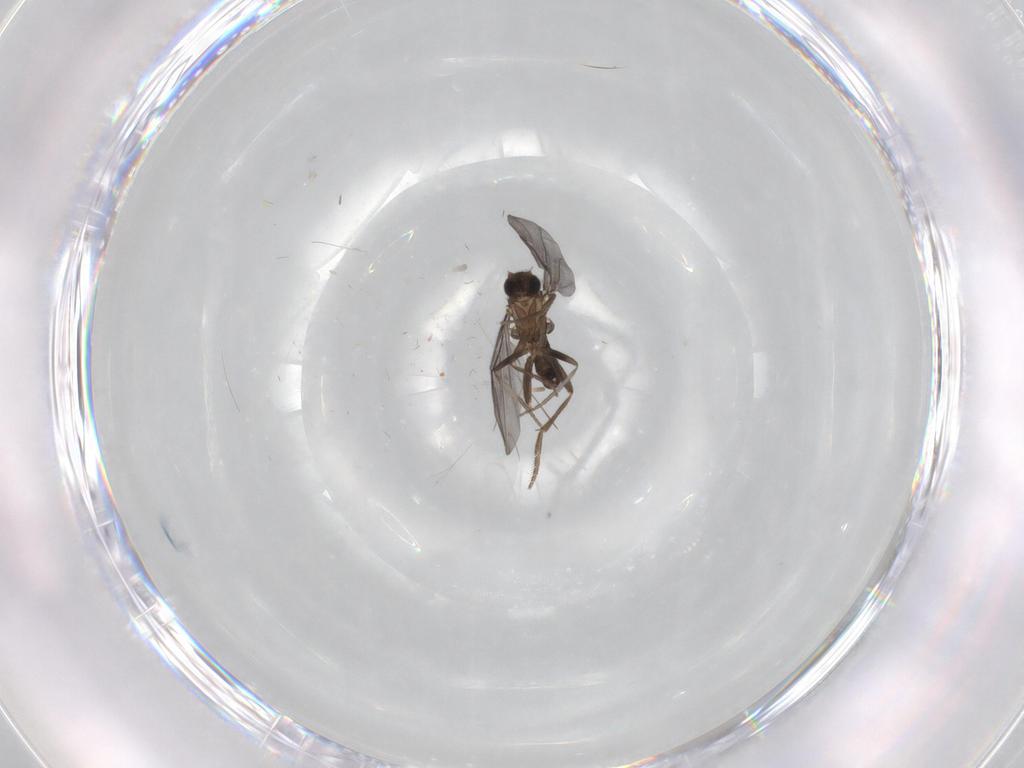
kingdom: Animalia
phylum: Arthropoda
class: Insecta
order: Diptera
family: Phoridae
